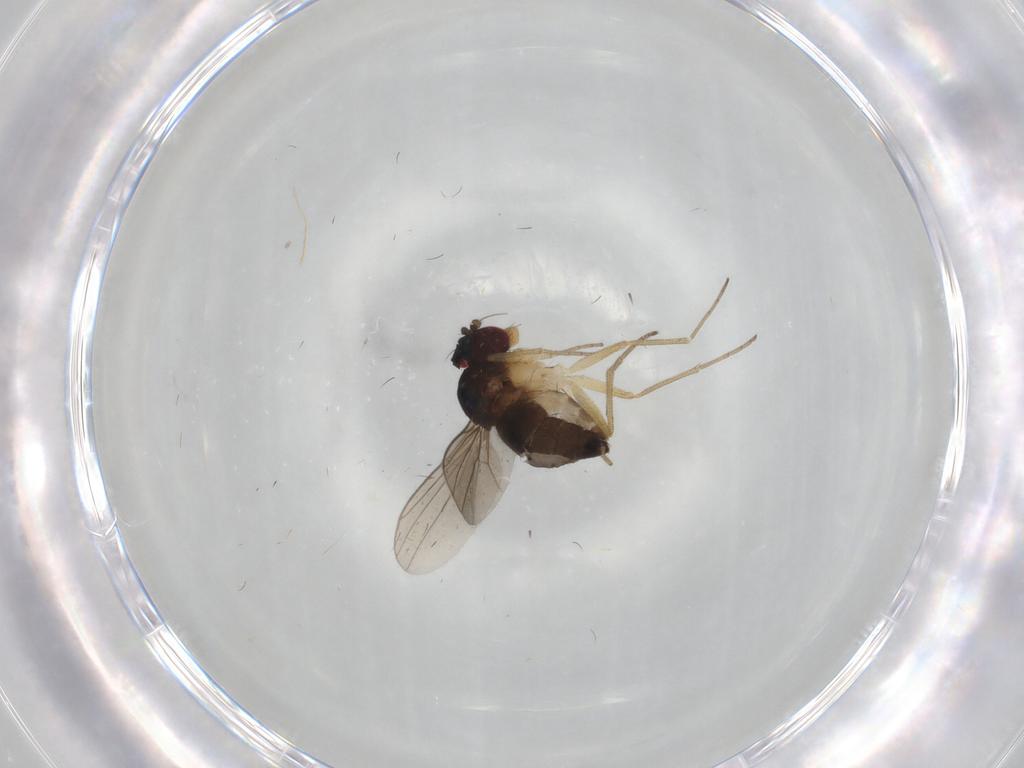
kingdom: Animalia
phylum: Arthropoda
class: Insecta
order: Diptera
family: Dolichopodidae
